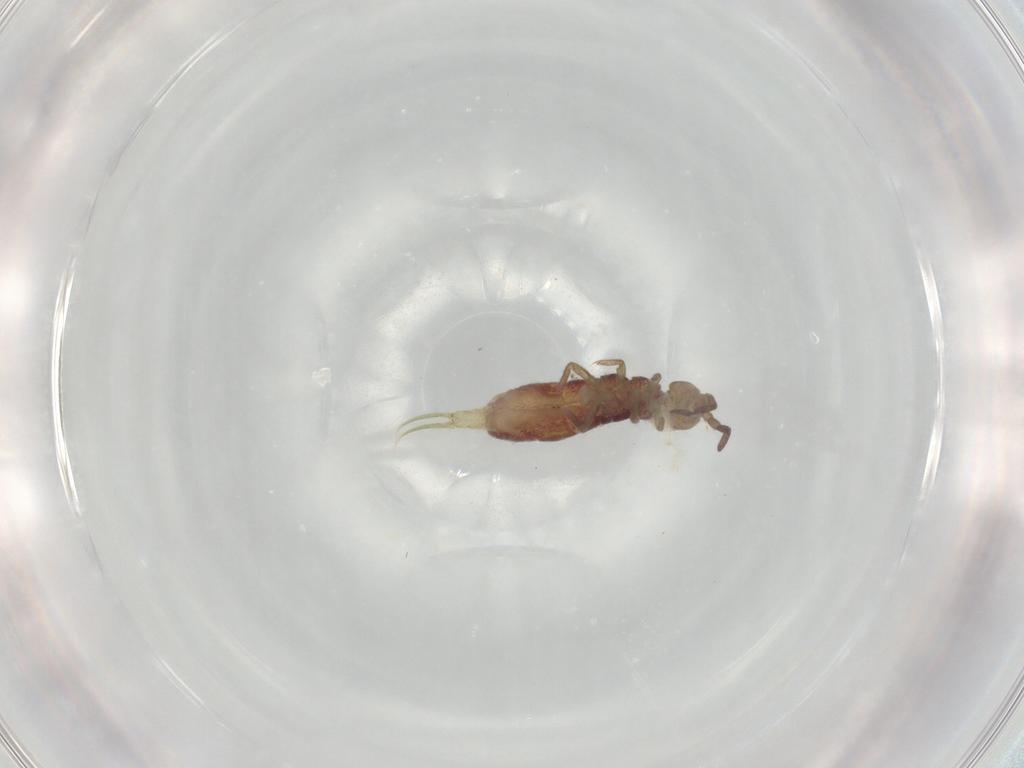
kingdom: Animalia
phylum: Arthropoda
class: Collembola
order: Entomobryomorpha
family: Isotomidae
